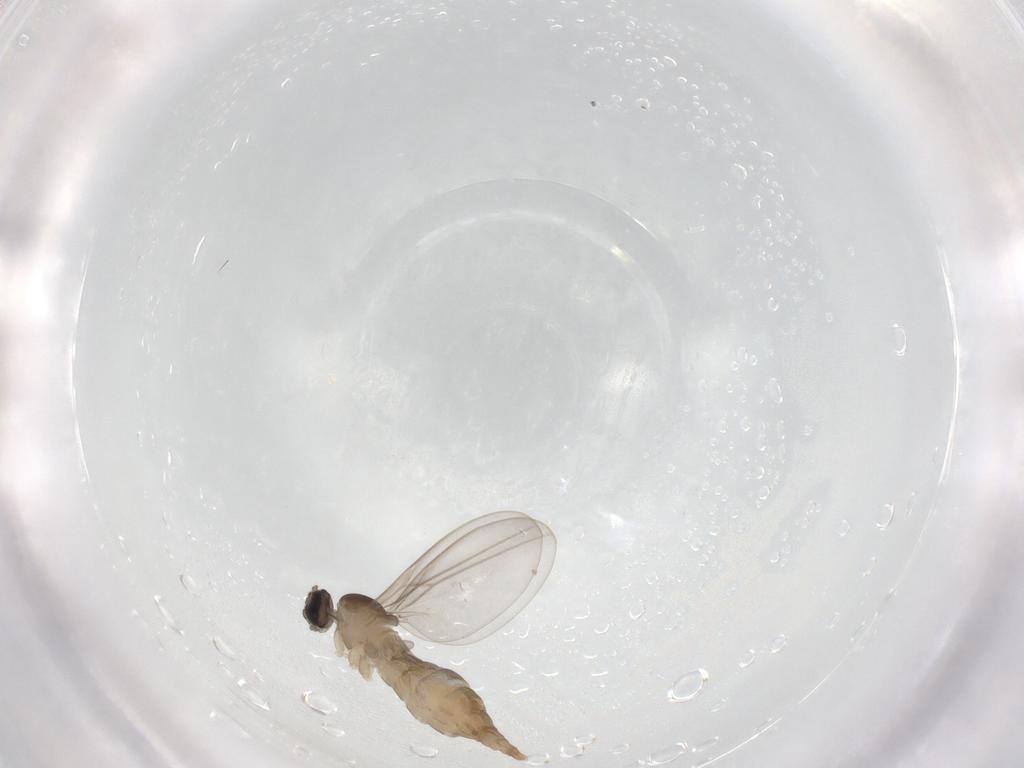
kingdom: Animalia
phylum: Arthropoda
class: Insecta
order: Diptera
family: Cecidomyiidae
